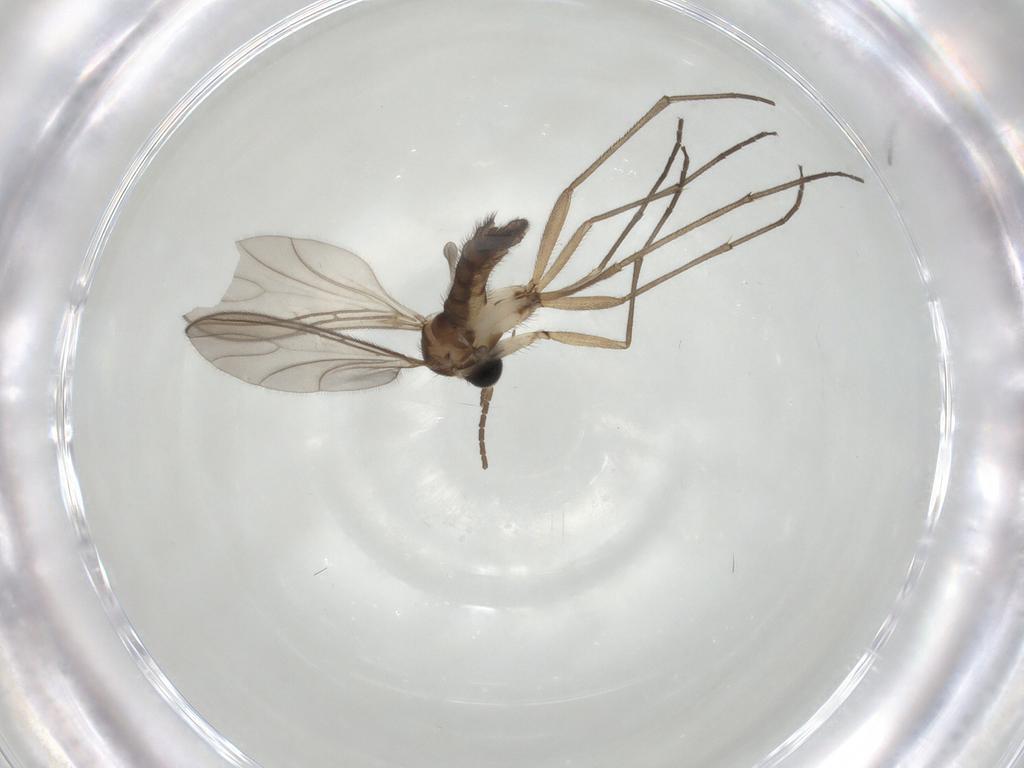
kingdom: Animalia
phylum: Arthropoda
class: Insecta
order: Diptera
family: Sciaridae
